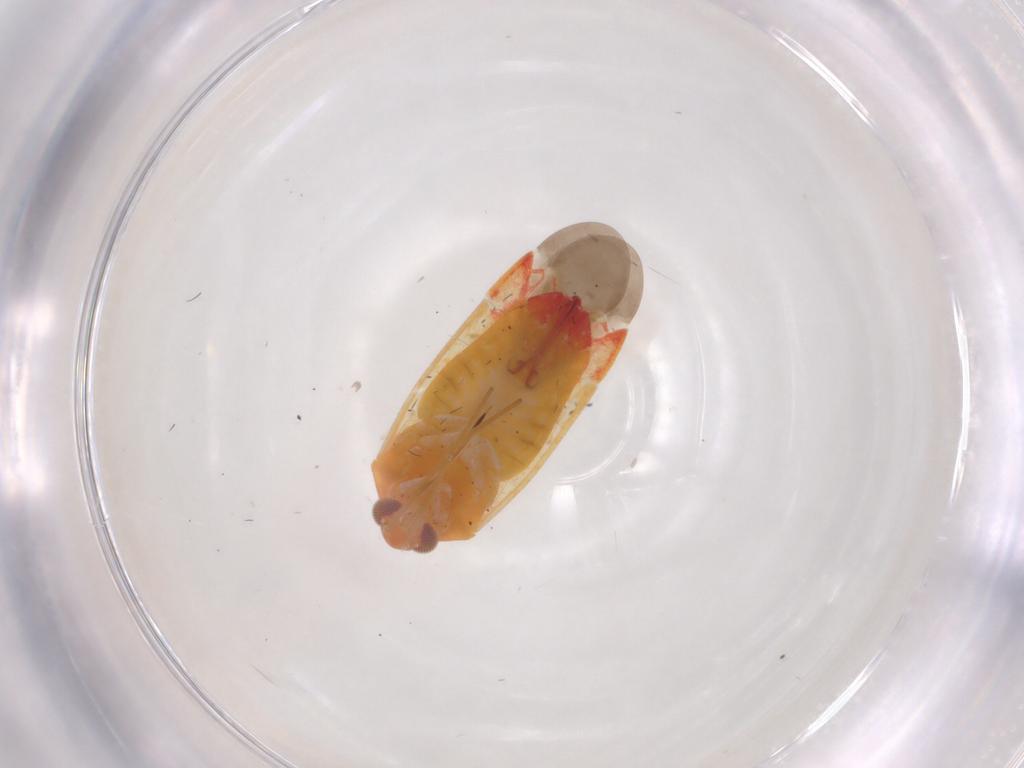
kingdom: Animalia
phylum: Arthropoda
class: Insecta
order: Hemiptera
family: Miridae
